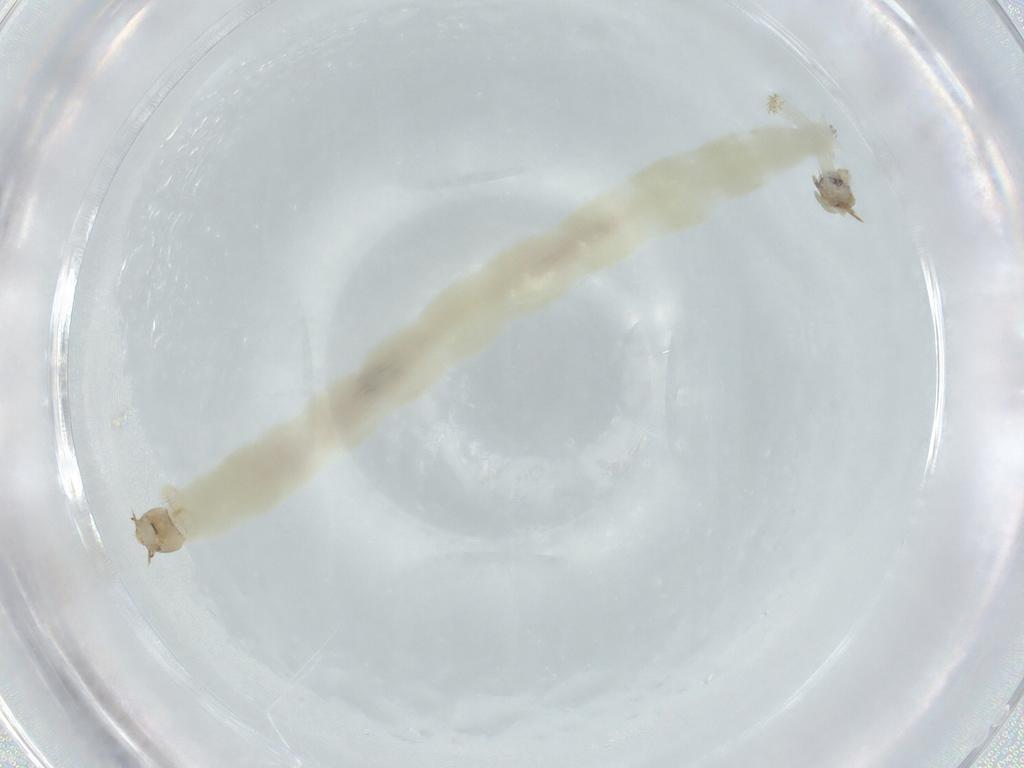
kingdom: Animalia
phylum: Arthropoda
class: Insecta
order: Diptera
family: Chironomidae
